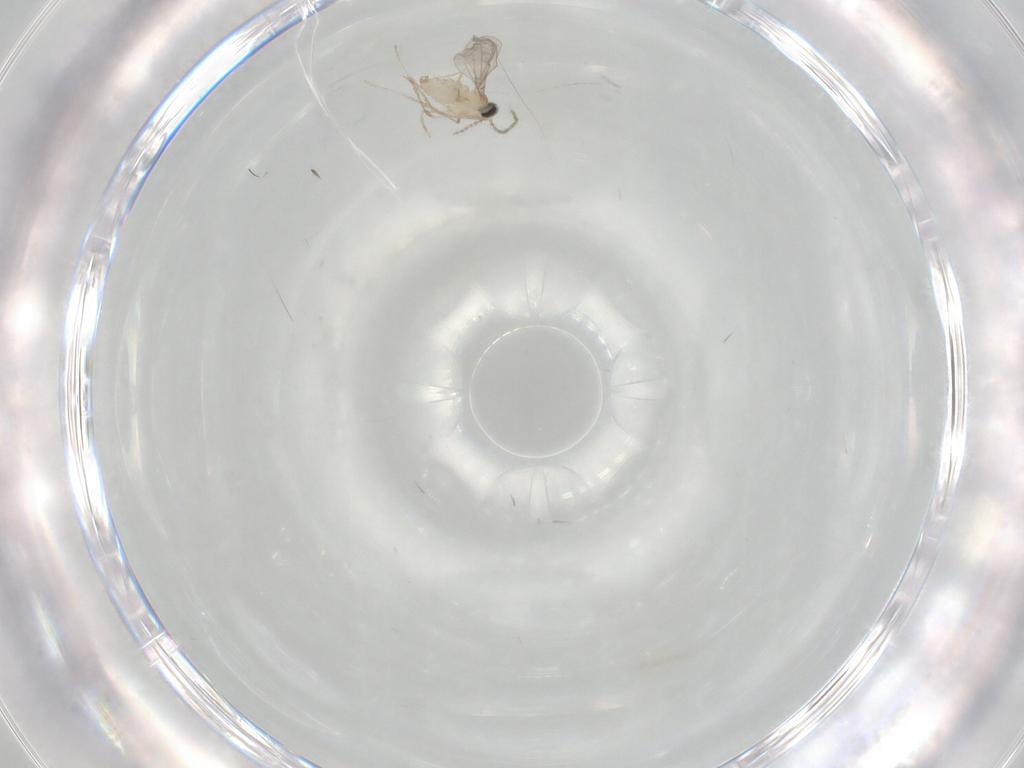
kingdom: Animalia
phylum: Arthropoda
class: Insecta
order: Diptera
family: Cecidomyiidae
